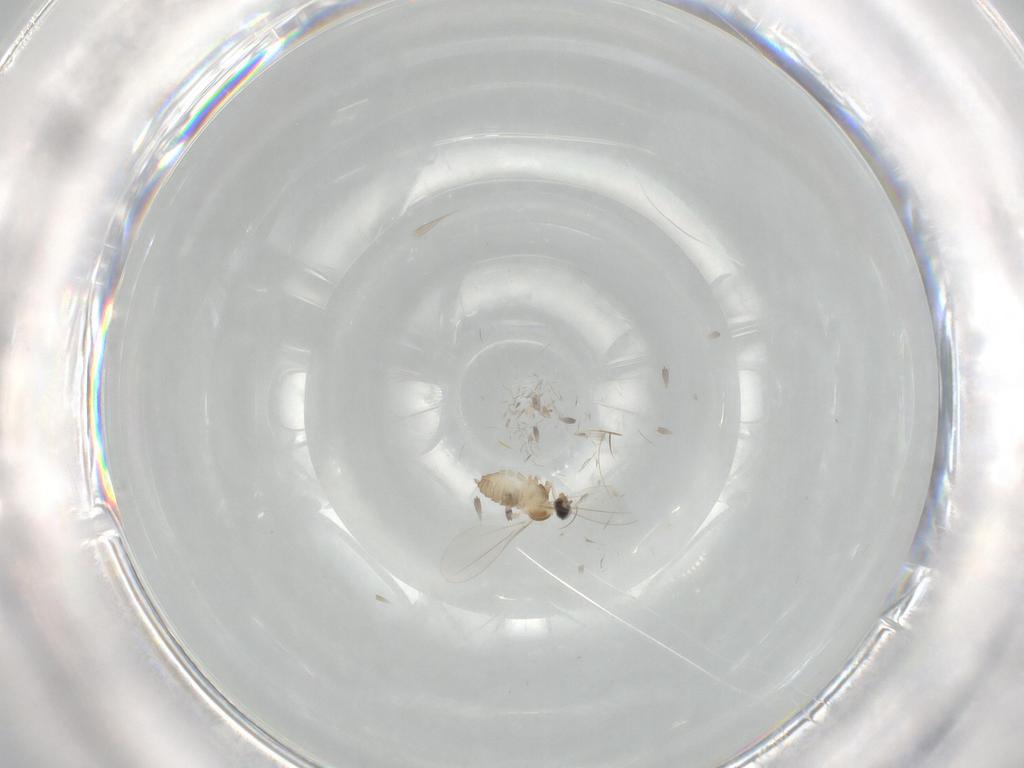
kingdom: Animalia
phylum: Arthropoda
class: Insecta
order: Diptera
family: Cecidomyiidae
